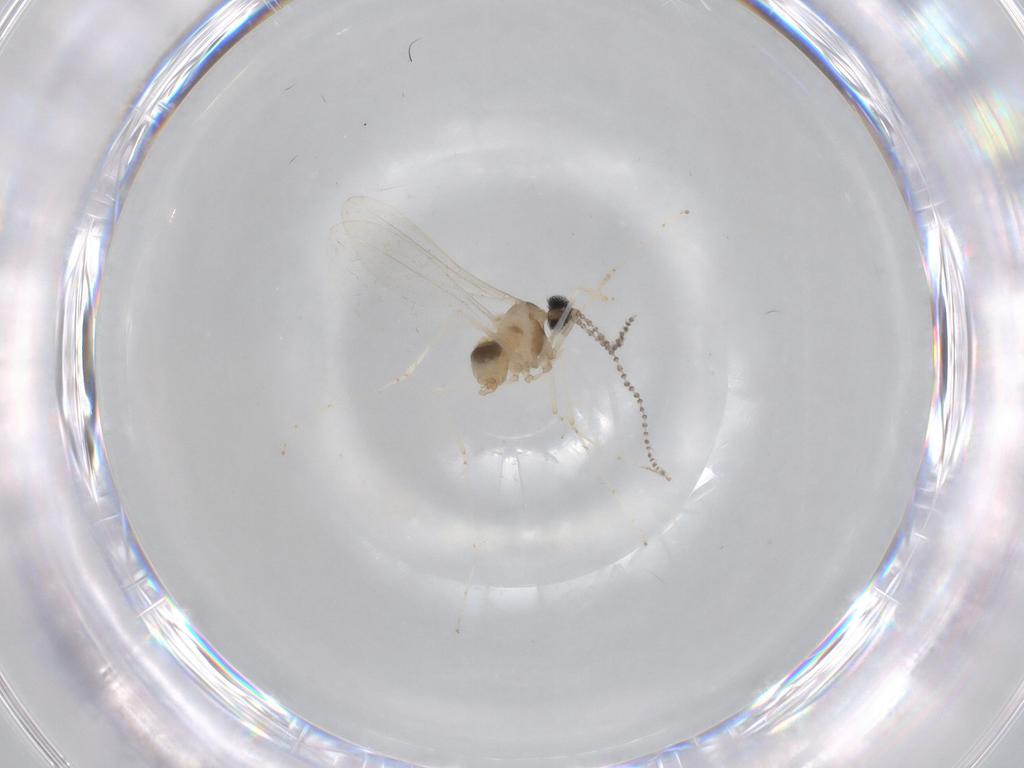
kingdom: Animalia
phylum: Arthropoda
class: Insecta
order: Diptera
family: Cecidomyiidae
